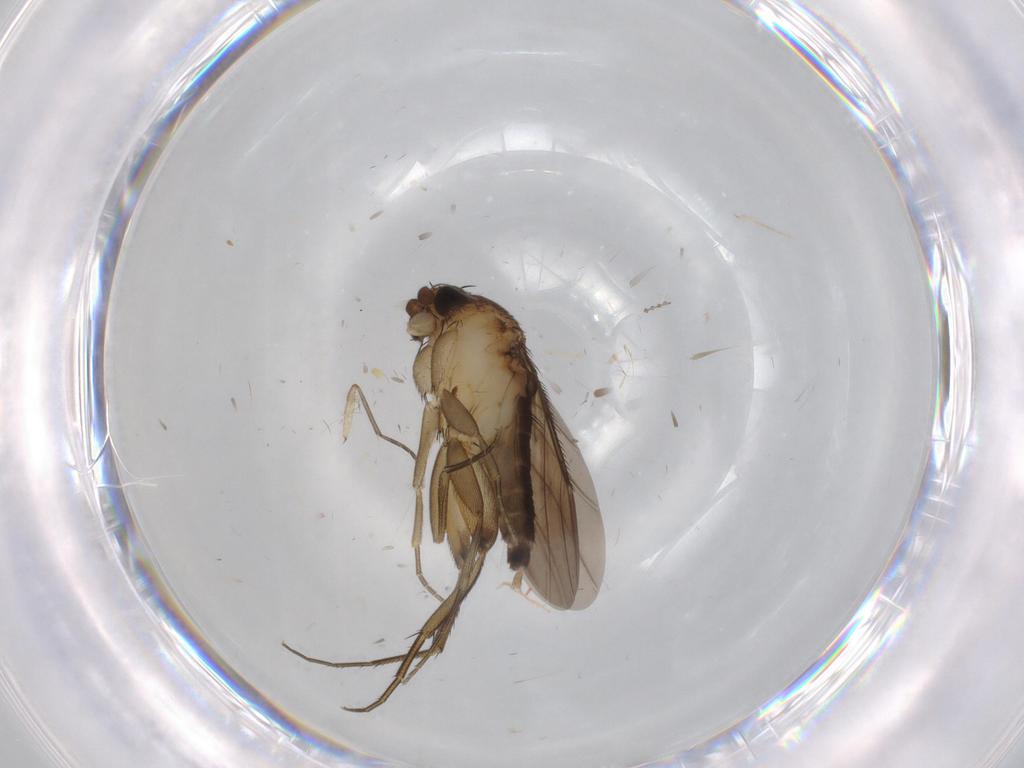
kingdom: Animalia
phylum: Arthropoda
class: Insecta
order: Diptera
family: Phoridae
